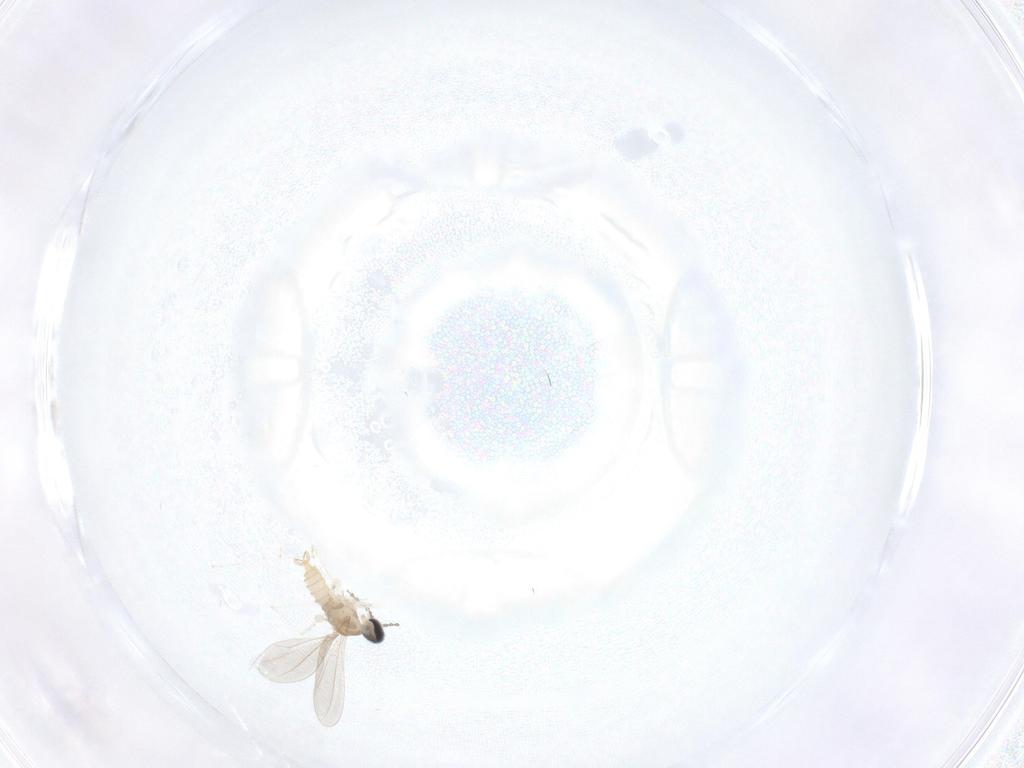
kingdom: Animalia
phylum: Arthropoda
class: Insecta
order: Diptera
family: Cecidomyiidae
